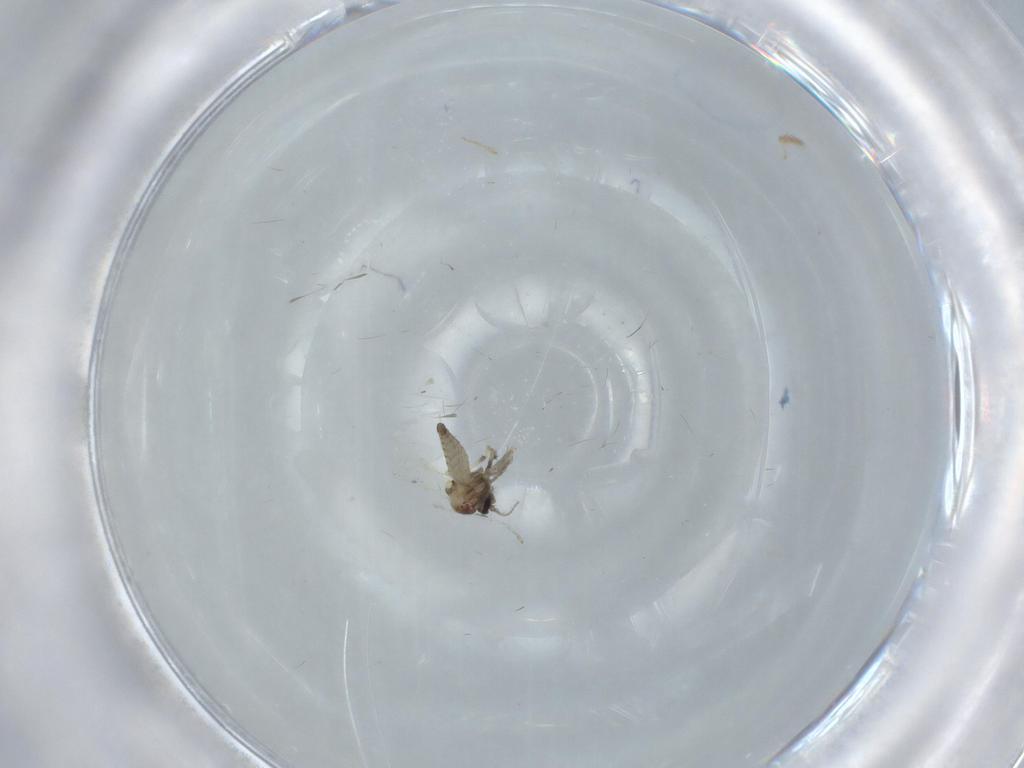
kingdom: Animalia
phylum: Arthropoda
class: Insecta
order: Diptera
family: Ceratopogonidae
